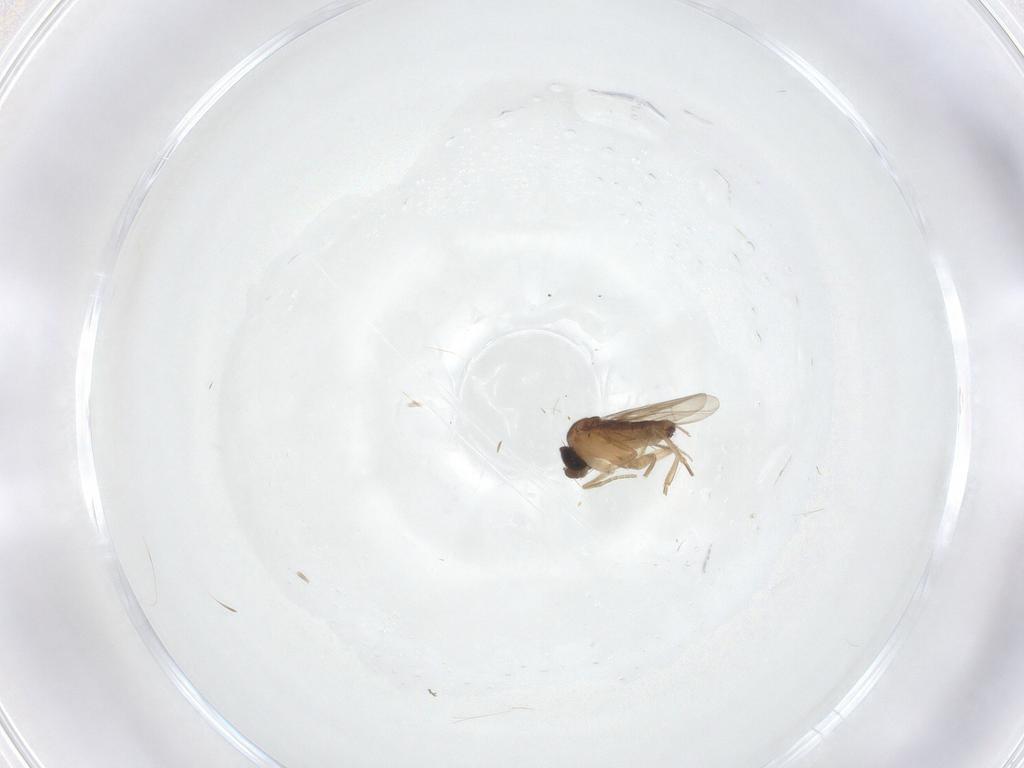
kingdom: Animalia
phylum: Arthropoda
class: Insecta
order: Diptera
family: Phoridae
